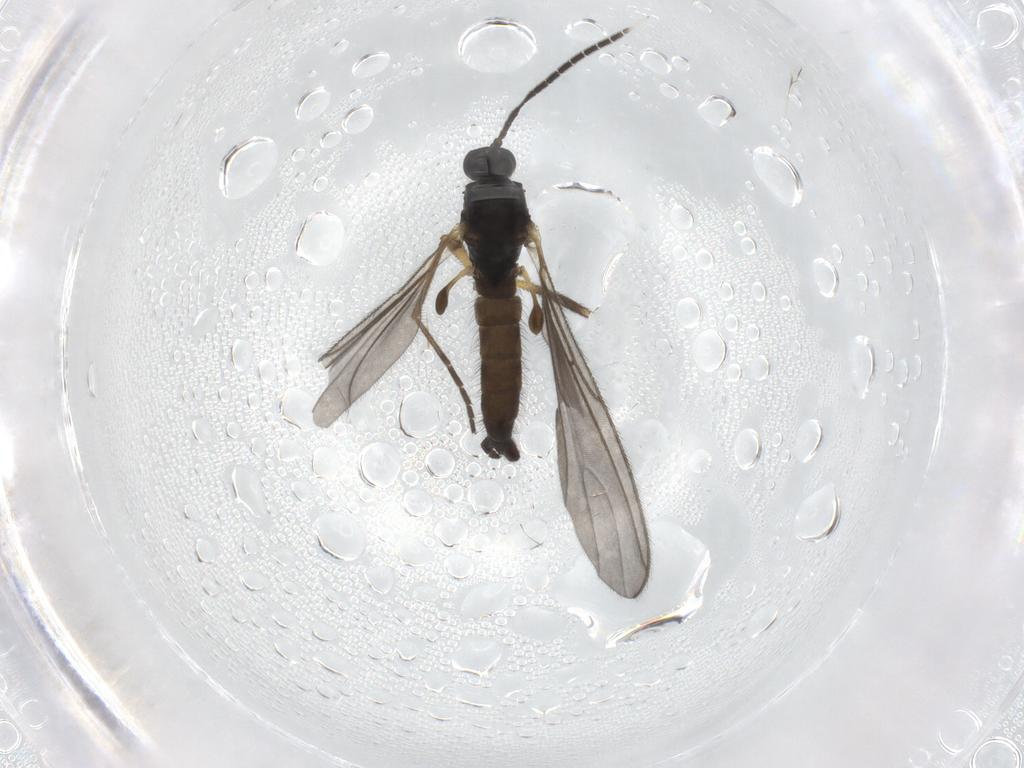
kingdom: Animalia
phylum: Arthropoda
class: Insecta
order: Diptera
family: Sciaridae
